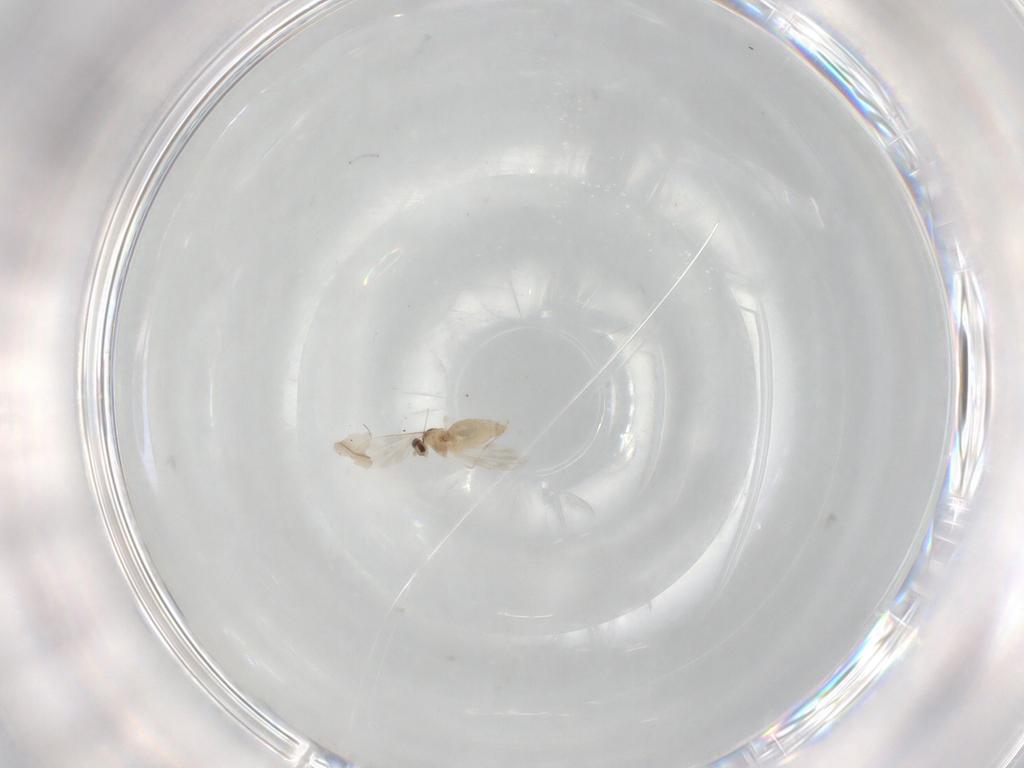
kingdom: Animalia
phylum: Arthropoda
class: Insecta
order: Diptera
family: Cecidomyiidae
